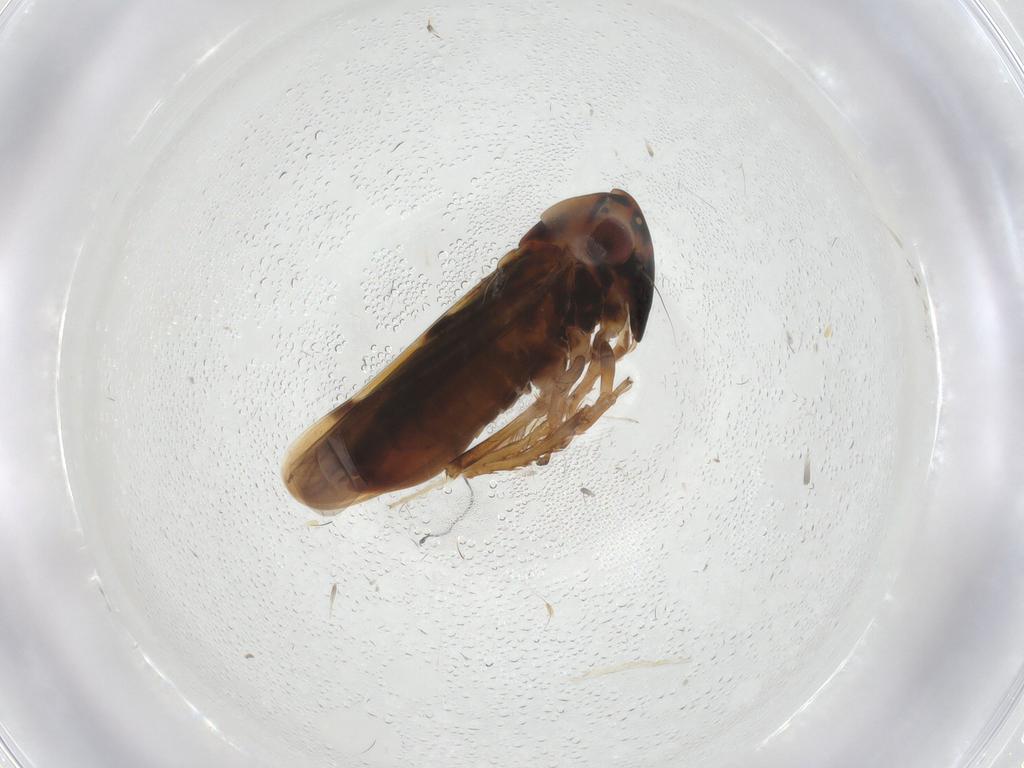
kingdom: Animalia
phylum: Arthropoda
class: Insecta
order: Hemiptera
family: Cicadellidae
